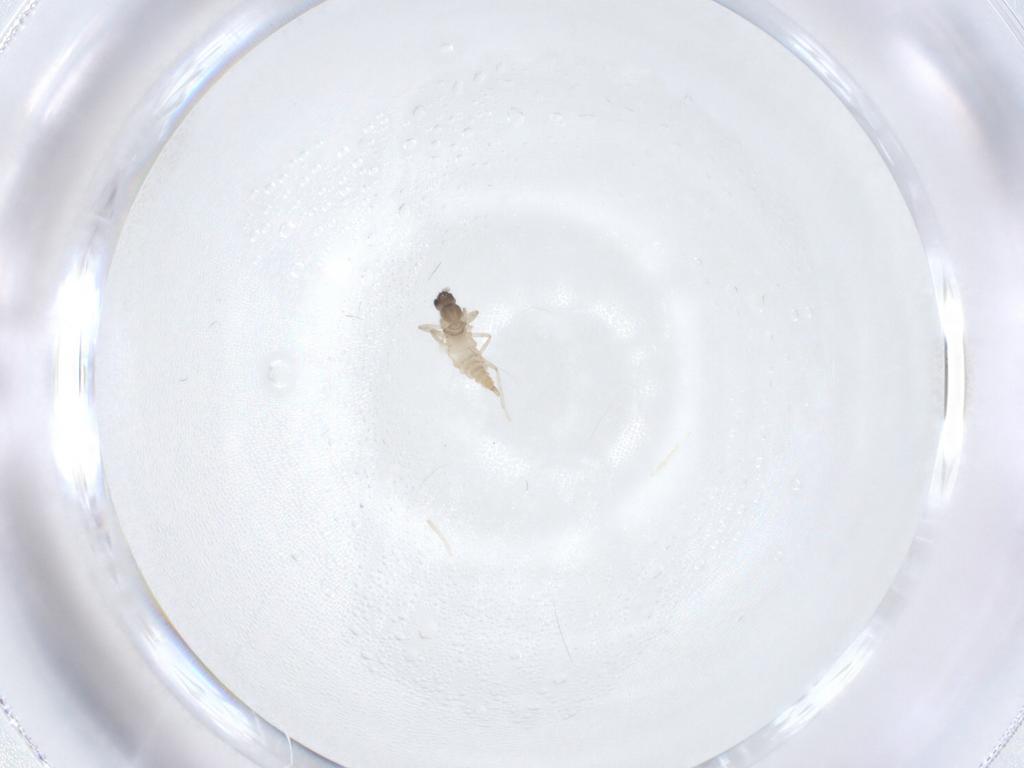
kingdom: Animalia
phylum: Arthropoda
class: Insecta
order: Diptera
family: Cecidomyiidae
